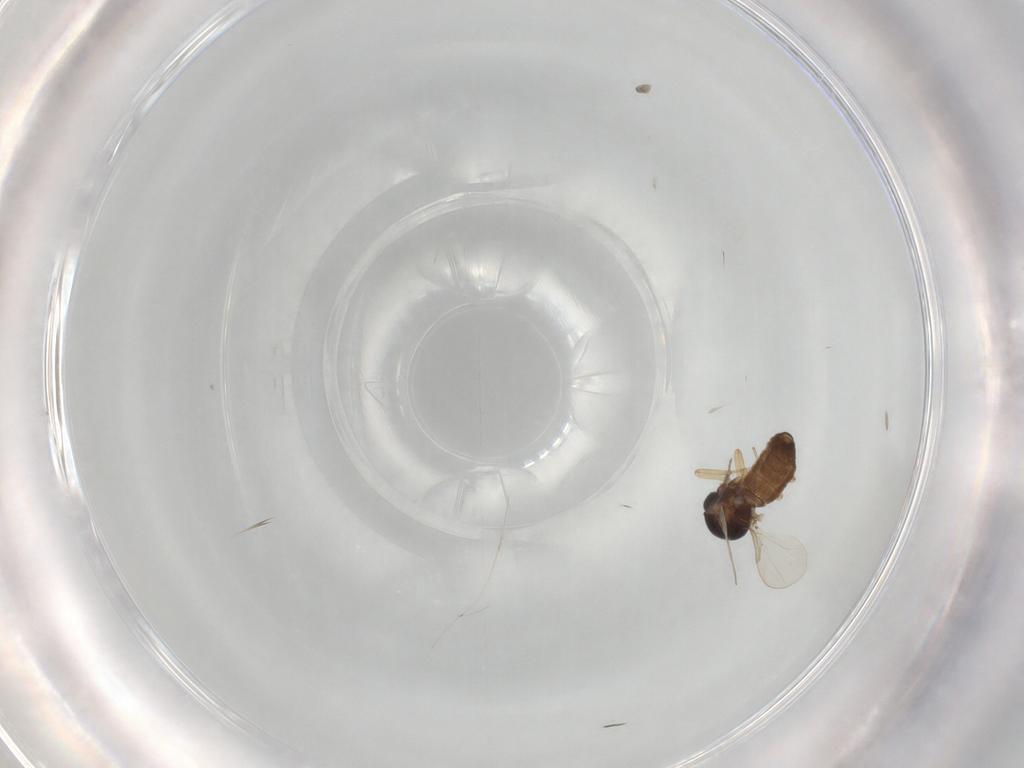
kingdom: Animalia
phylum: Arthropoda
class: Insecta
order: Diptera
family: Ceratopogonidae
